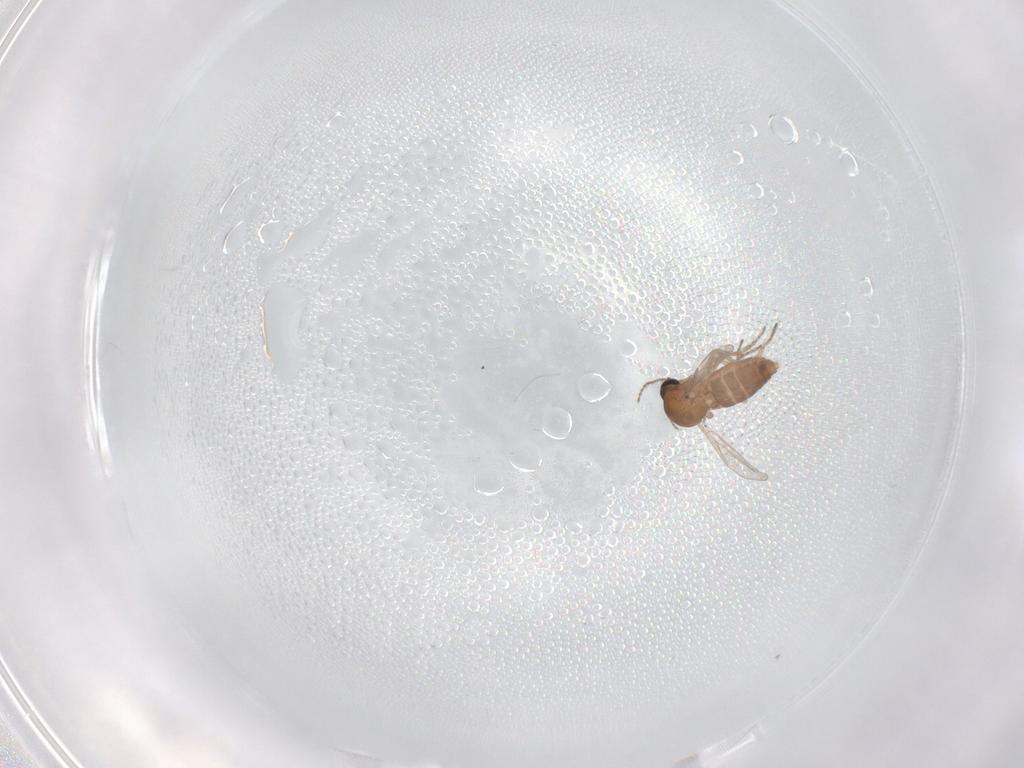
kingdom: Animalia
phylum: Arthropoda
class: Insecta
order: Diptera
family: Ceratopogonidae
